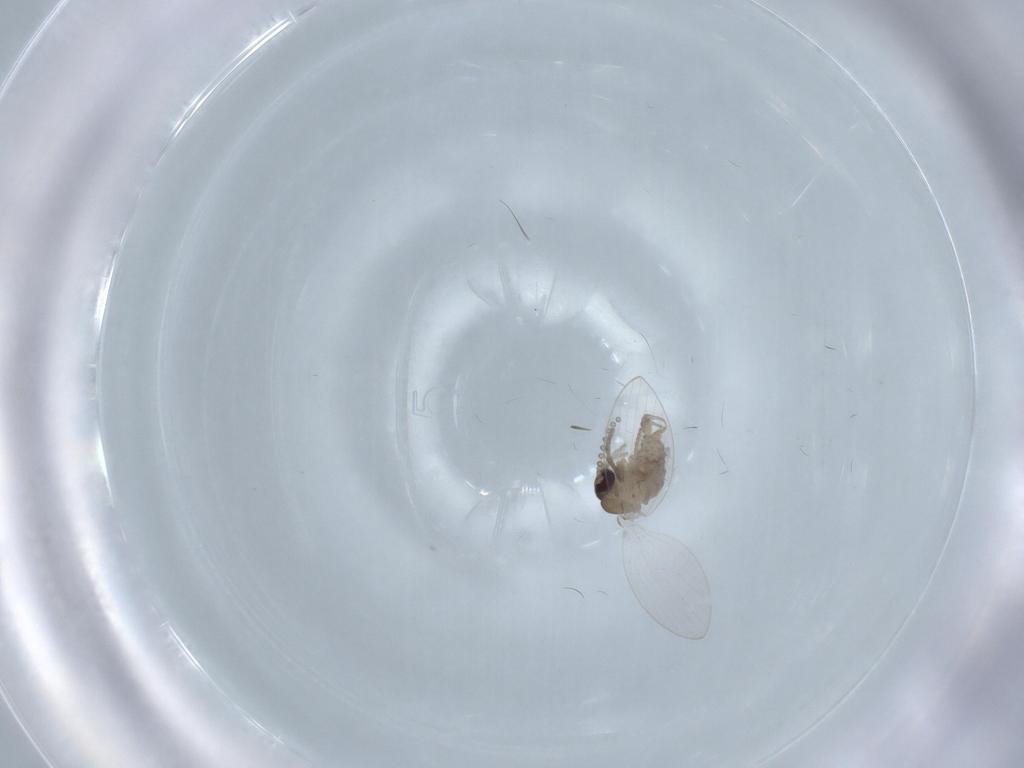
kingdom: Animalia
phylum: Arthropoda
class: Insecta
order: Diptera
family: Psychodidae
